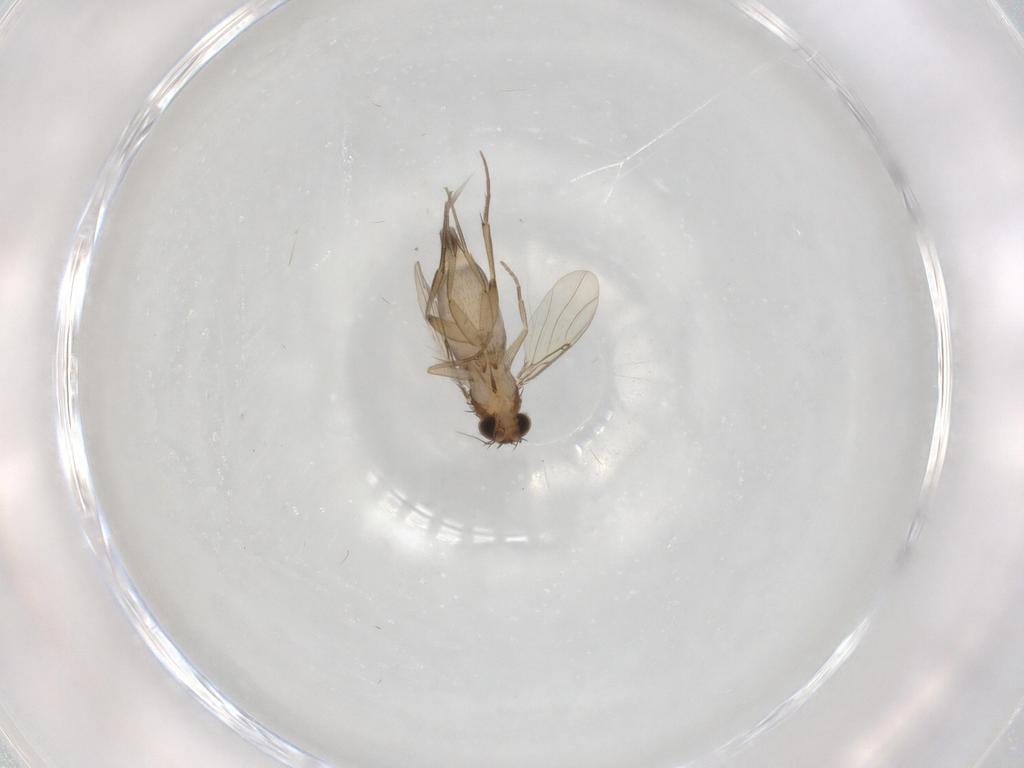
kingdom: Animalia
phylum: Arthropoda
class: Insecta
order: Diptera
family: Phoridae
